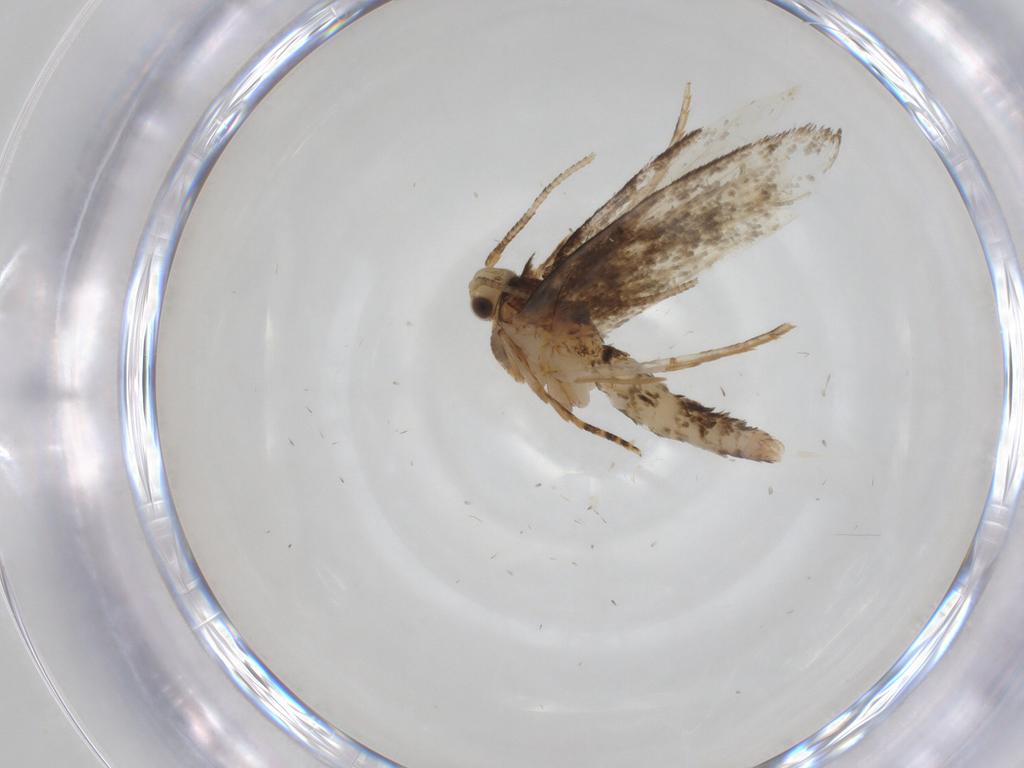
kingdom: Animalia
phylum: Arthropoda
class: Insecta
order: Lepidoptera
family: Tineidae
